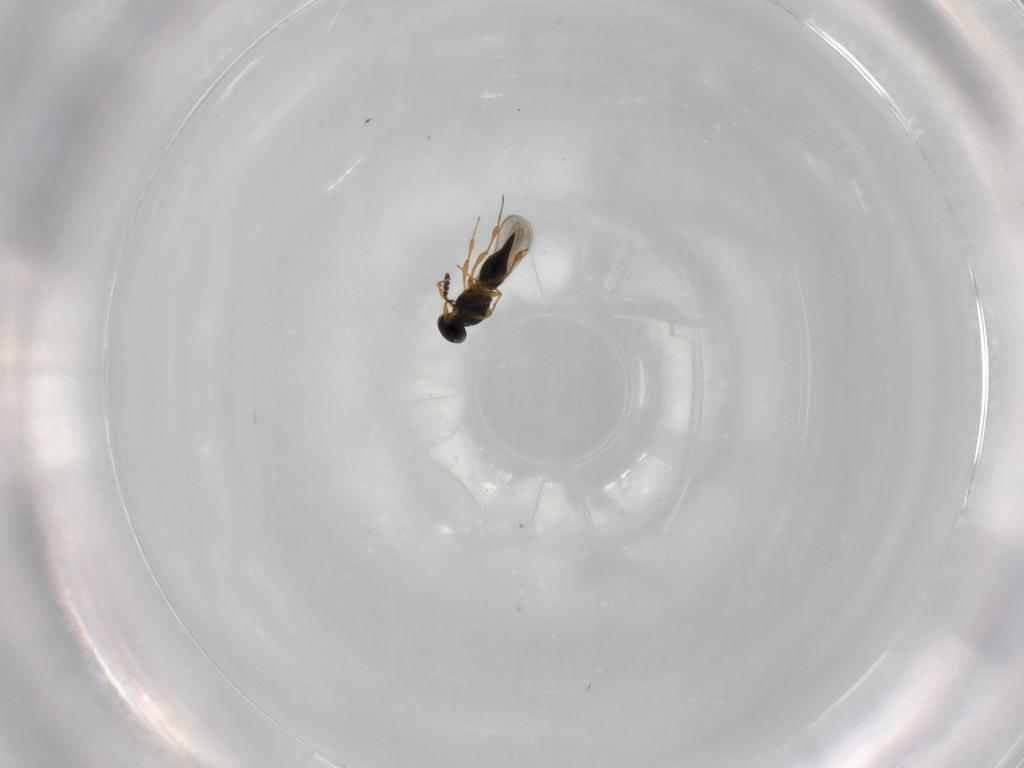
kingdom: Animalia
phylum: Arthropoda
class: Insecta
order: Hymenoptera
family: Platygastridae
